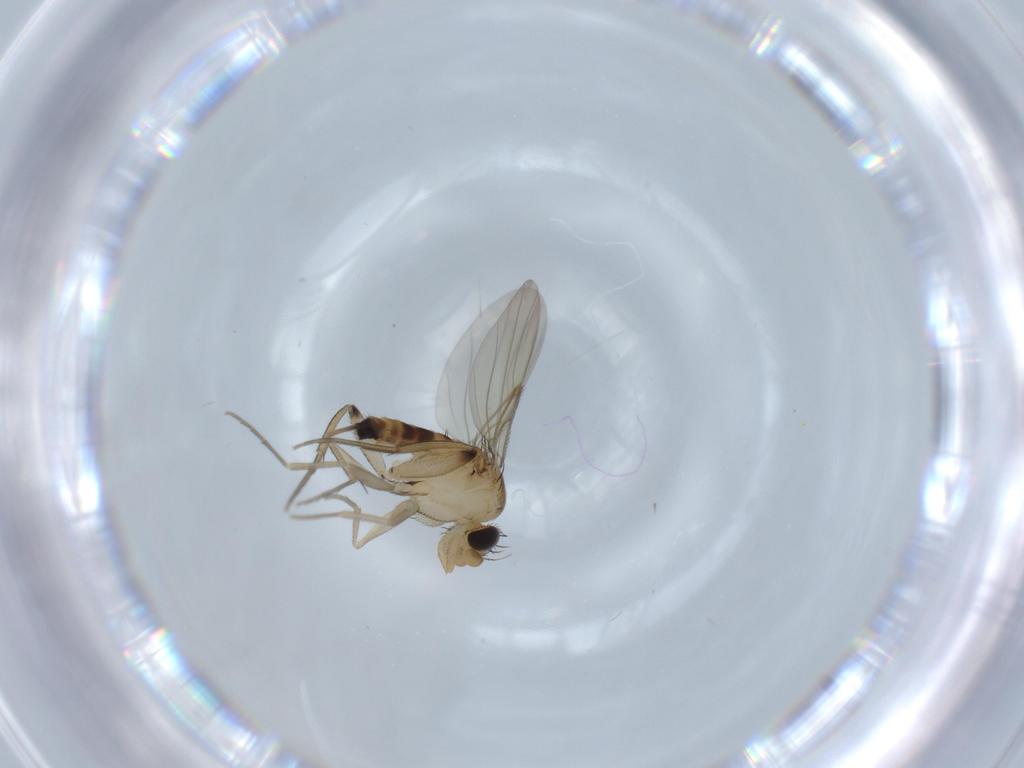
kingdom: Animalia
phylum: Arthropoda
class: Insecta
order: Diptera
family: Phoridae
